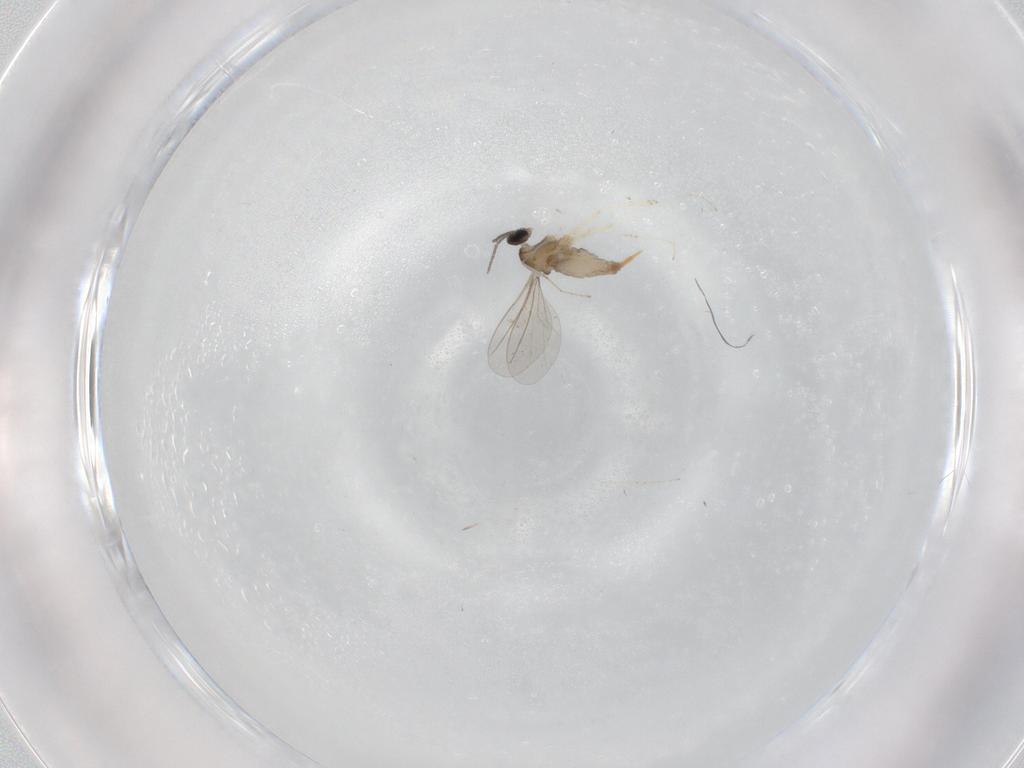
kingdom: Animalia
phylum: Arthropoda
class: Insecta
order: Diptera
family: Cecidomyiidae
